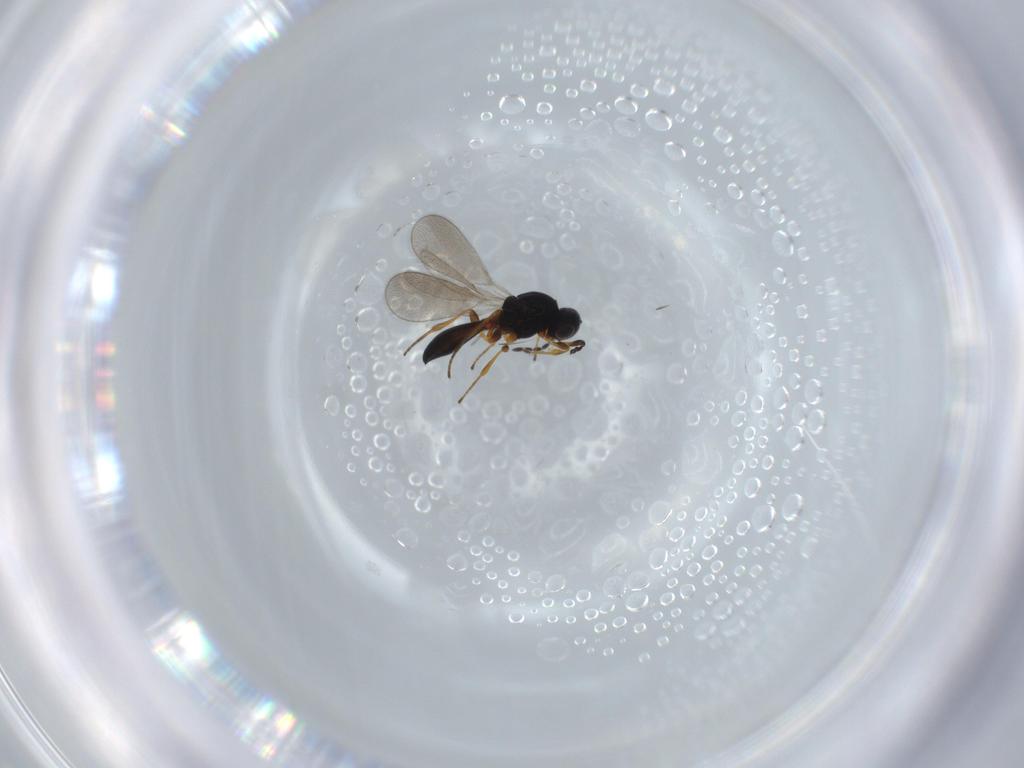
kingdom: Animalia
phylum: Arthropoda
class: Insecta
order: Hymenoptera
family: Platygastridae
